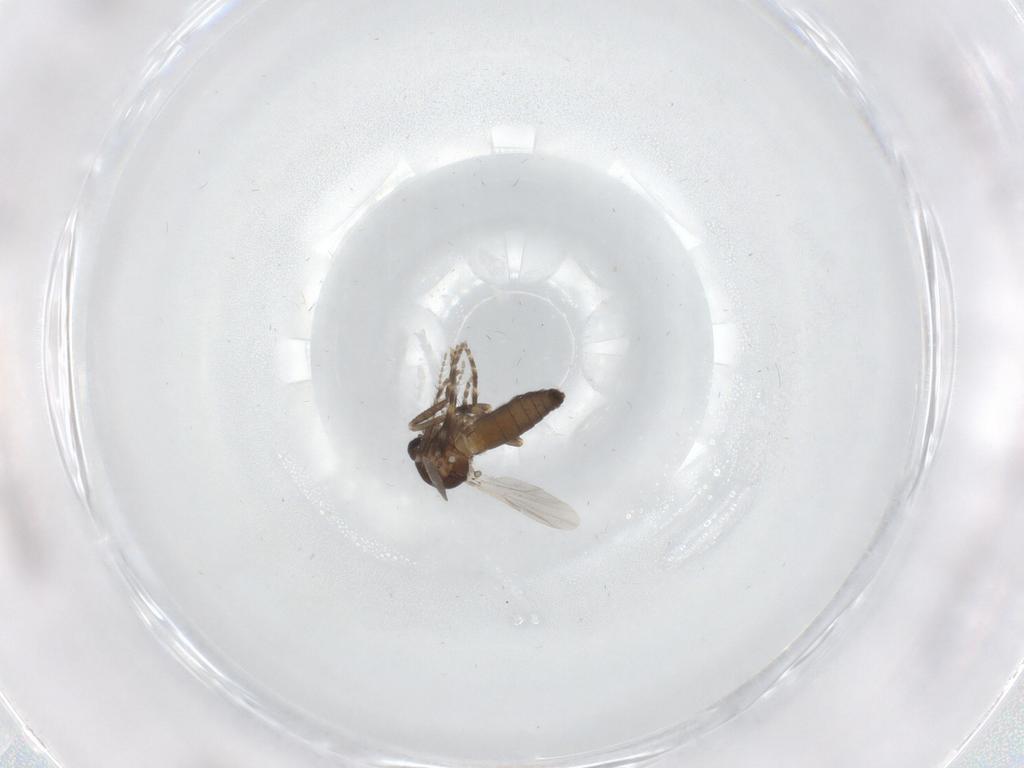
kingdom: Animalia
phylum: Arthropoda
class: Insecta
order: Diptera
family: Ceratopogonidae
